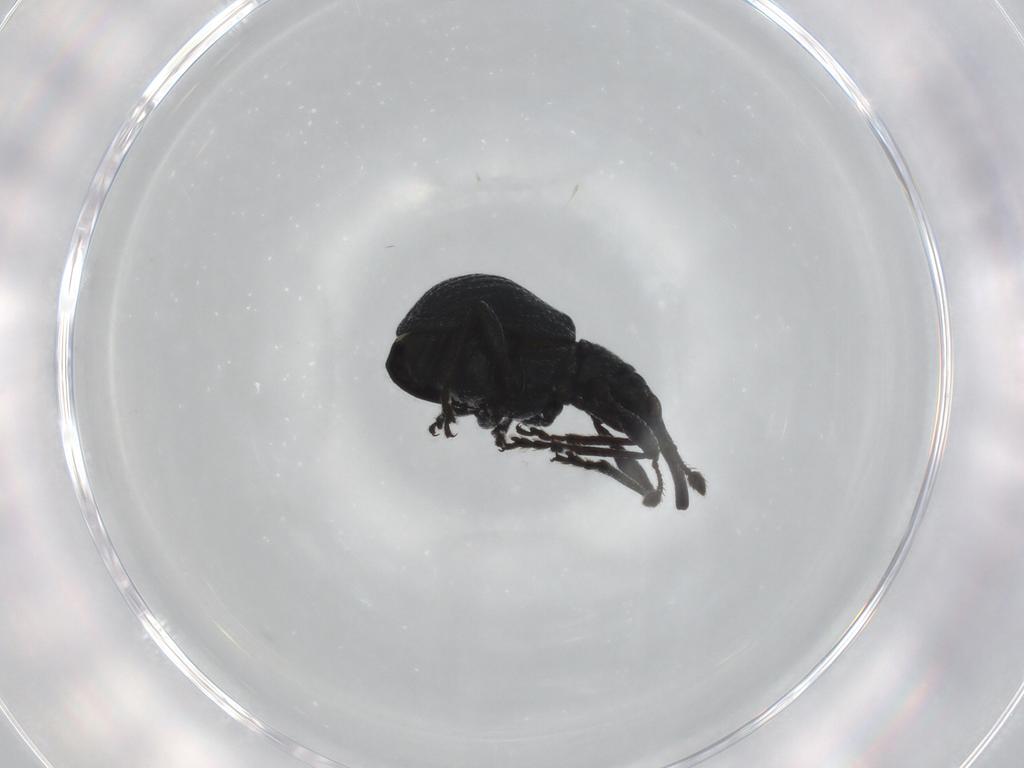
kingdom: Animalia
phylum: Arthropoda
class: Insecta
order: Coleoptera
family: Brentidae
